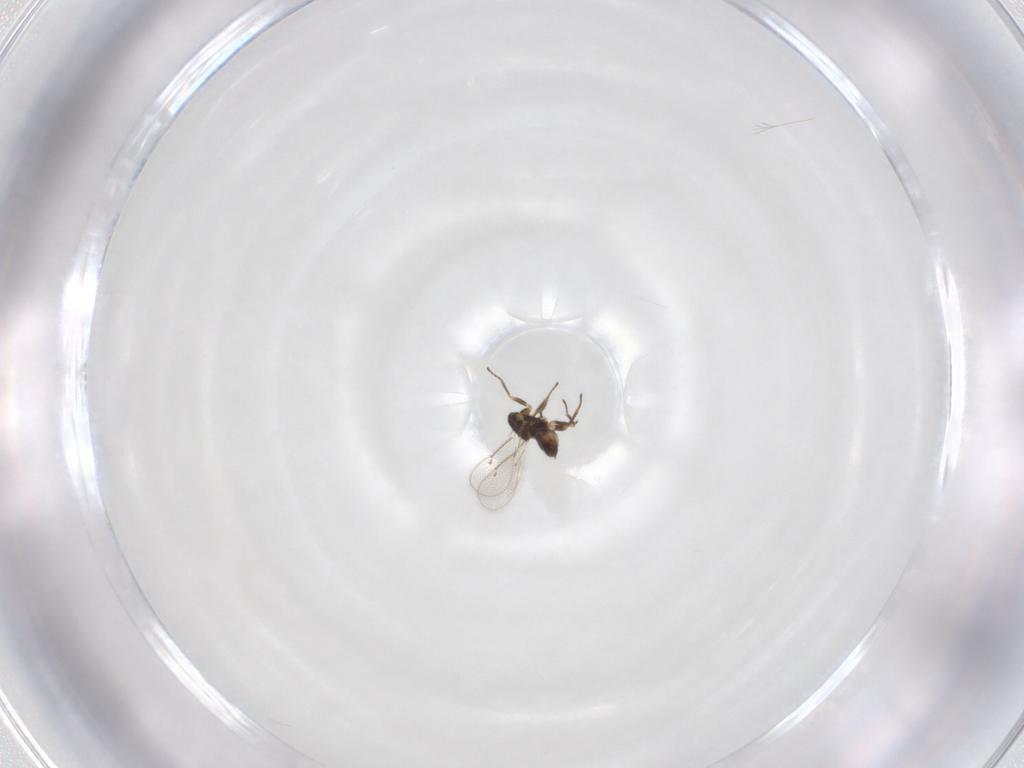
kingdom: Animalia
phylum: Arthropoda
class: Insecta
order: Hymenoptera
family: Eulophidae
